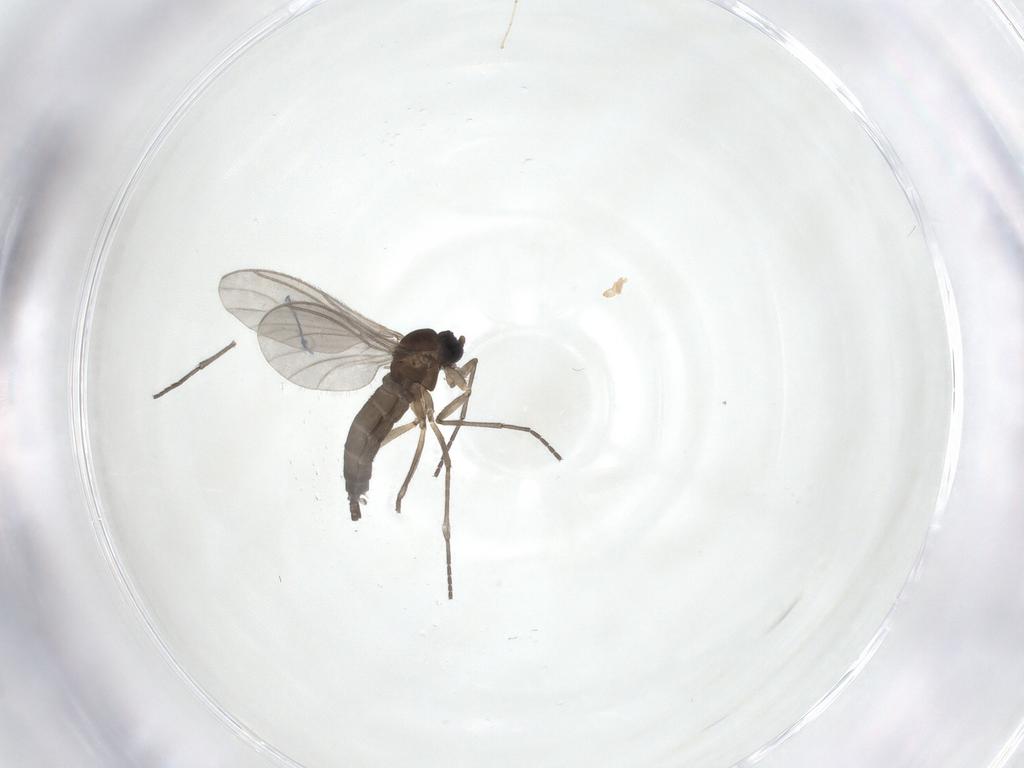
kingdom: Animalia
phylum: Arthropoda
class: Insecta
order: Diptera
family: Sciaridae
